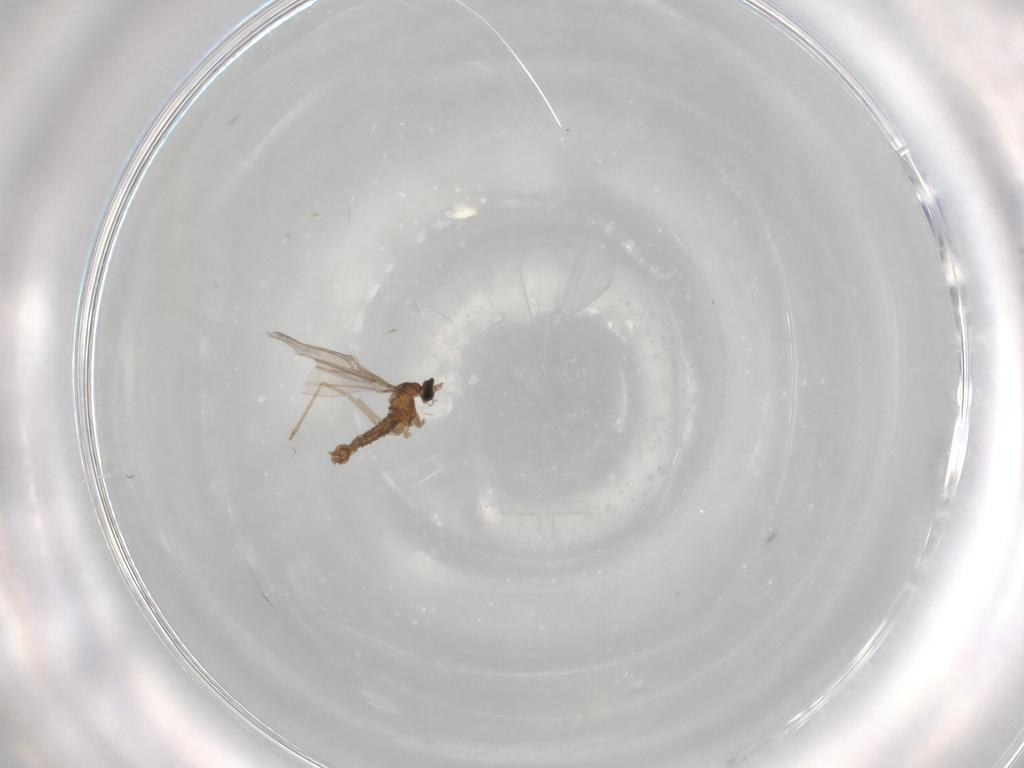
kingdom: Animalia
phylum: Arthropoda
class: Insecta
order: Diptera
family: Cecidomyiidae
